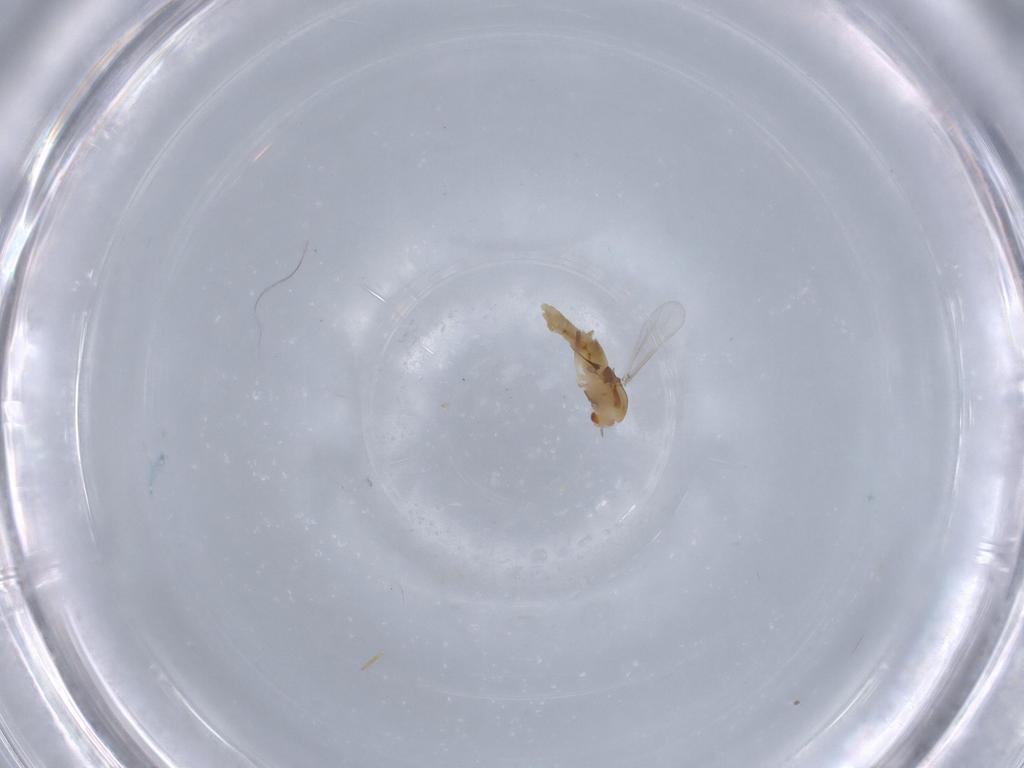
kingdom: Animalia
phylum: Arthropoda
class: Insecta
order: Diptera
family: Chironomidae
